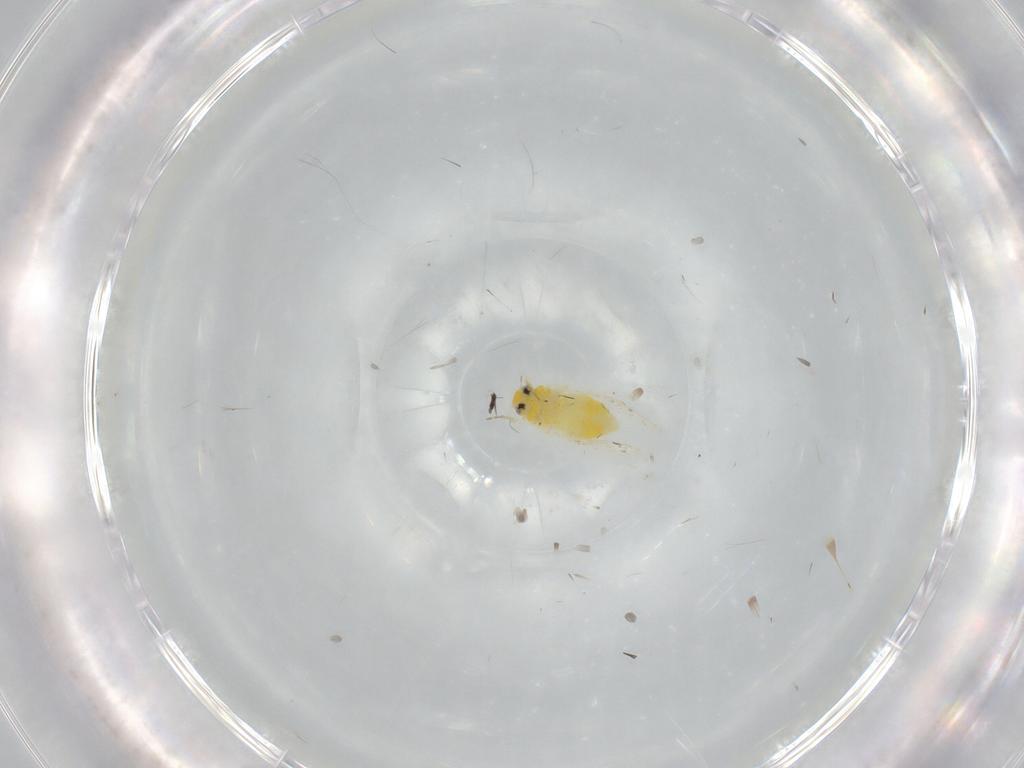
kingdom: Animalia
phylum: Arthropoda
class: Insecta
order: Hemiptera
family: Aleyrodidae
